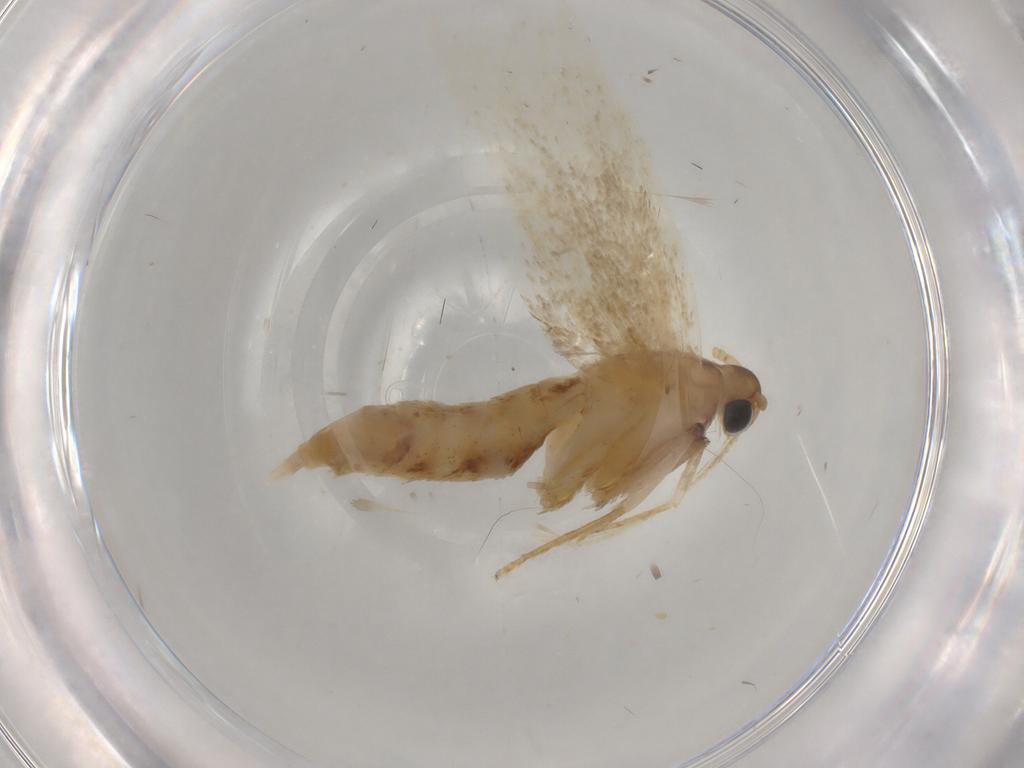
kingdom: Animalia
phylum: Arthropoda
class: Insecta
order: Lepidoptera
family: Lecithoceridae
